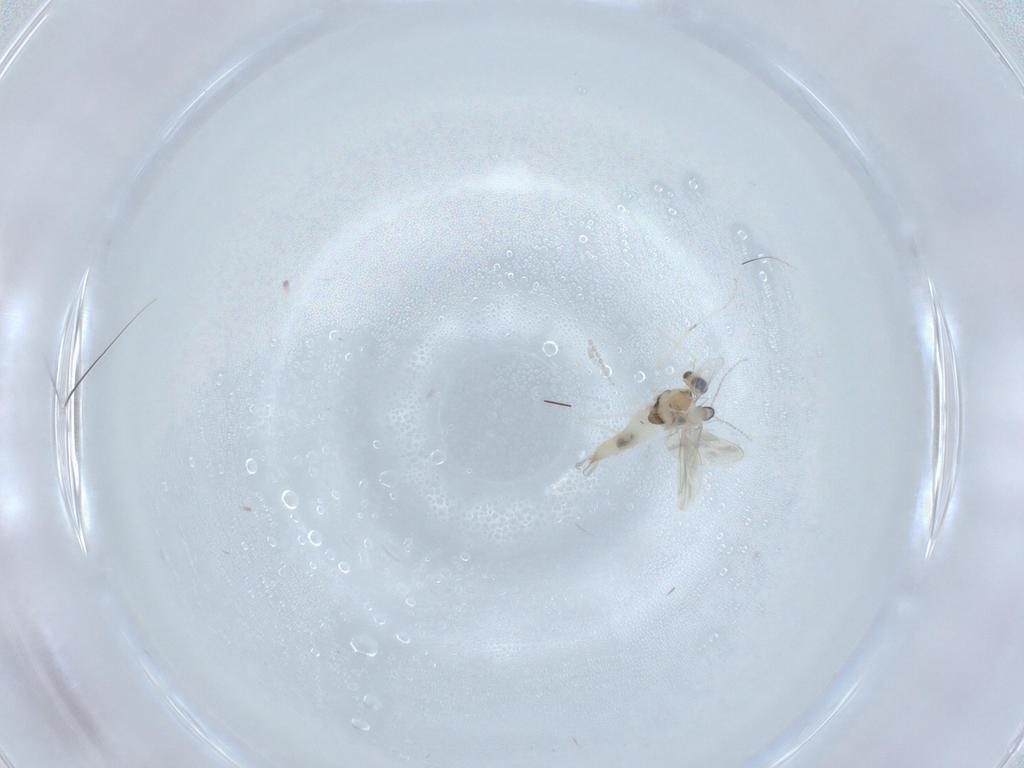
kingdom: Animalia
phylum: Arthropoda
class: Insecta
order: Diptera
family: Cecidomyiidae
